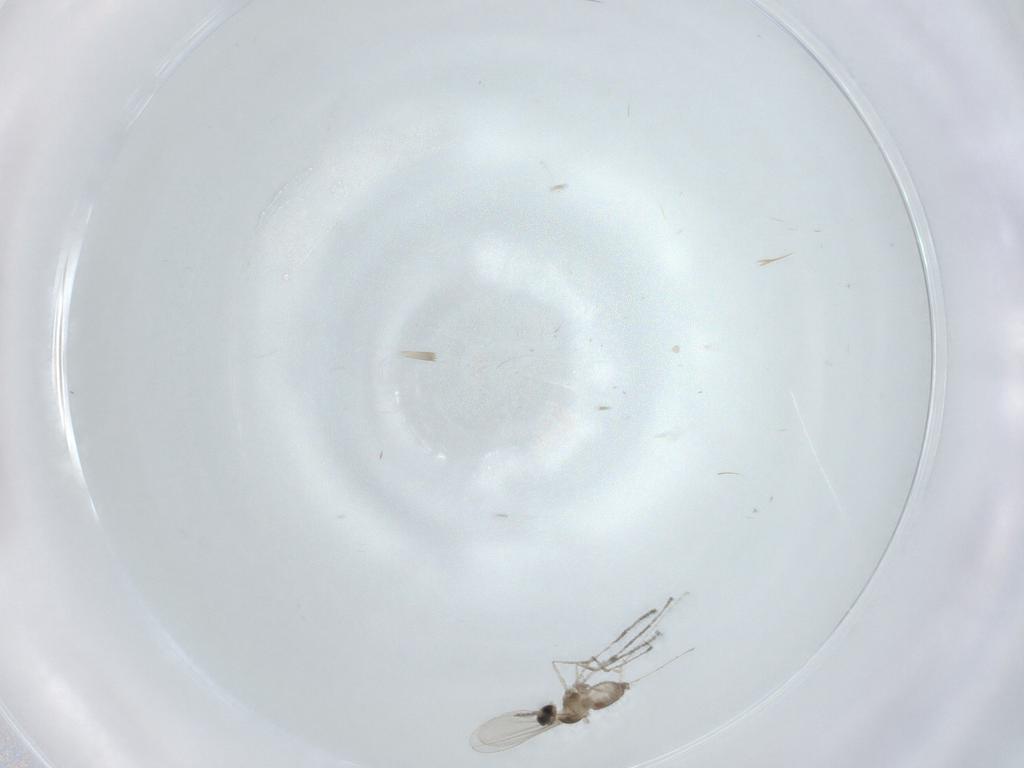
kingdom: Animalia
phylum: Arthropoda
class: Insecta
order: Diptera
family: Cecidomyiidae
